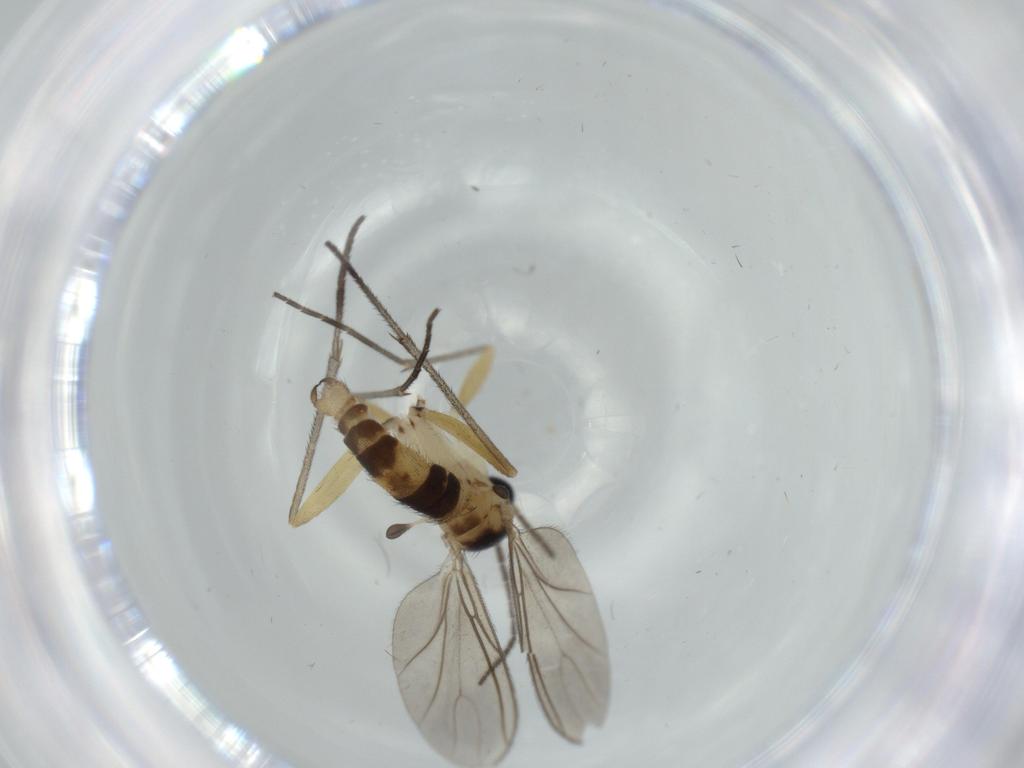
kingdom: Animalia
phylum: Arthropoda
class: Insecta
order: Diptera
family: Sciaridae
